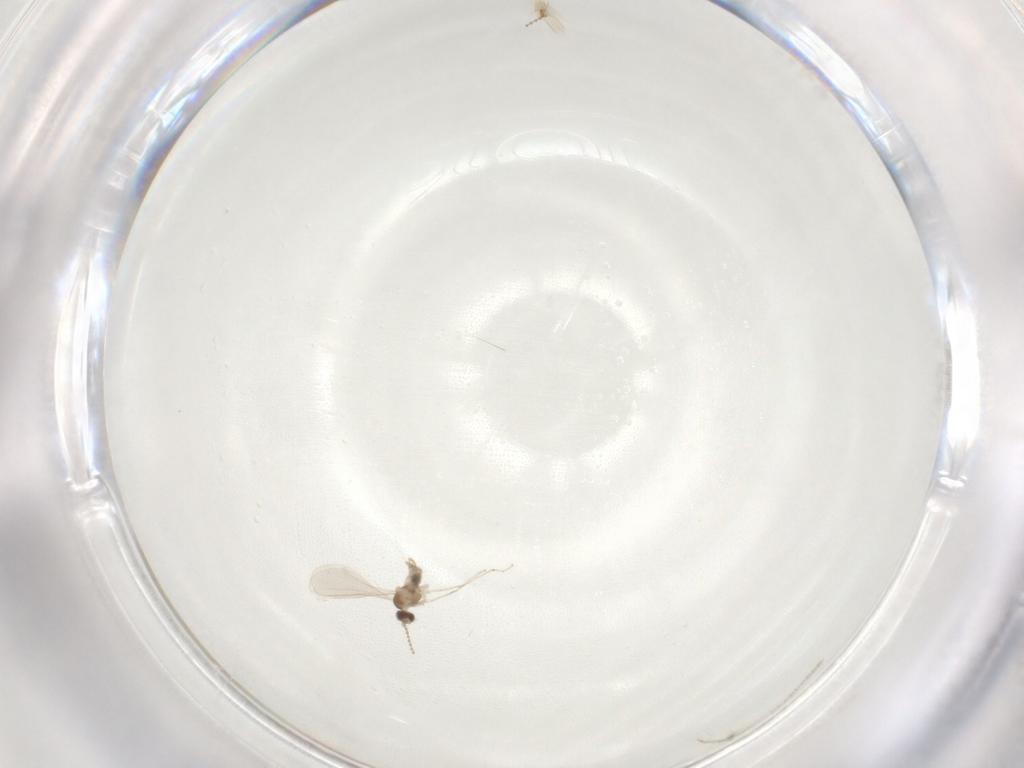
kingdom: Animalia
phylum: Arthropoda
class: Insecta
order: Diptera
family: Cecidomyiidae
